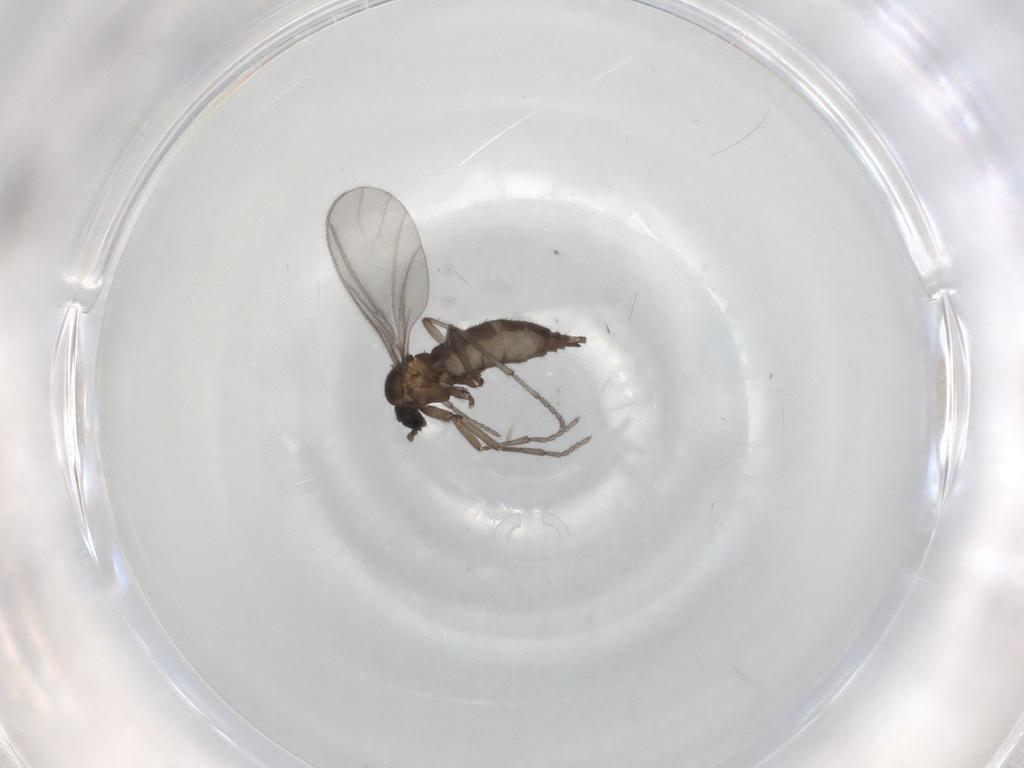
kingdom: Animalia
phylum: Arthropoda
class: Insecta
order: Diptera
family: Sciaridae
